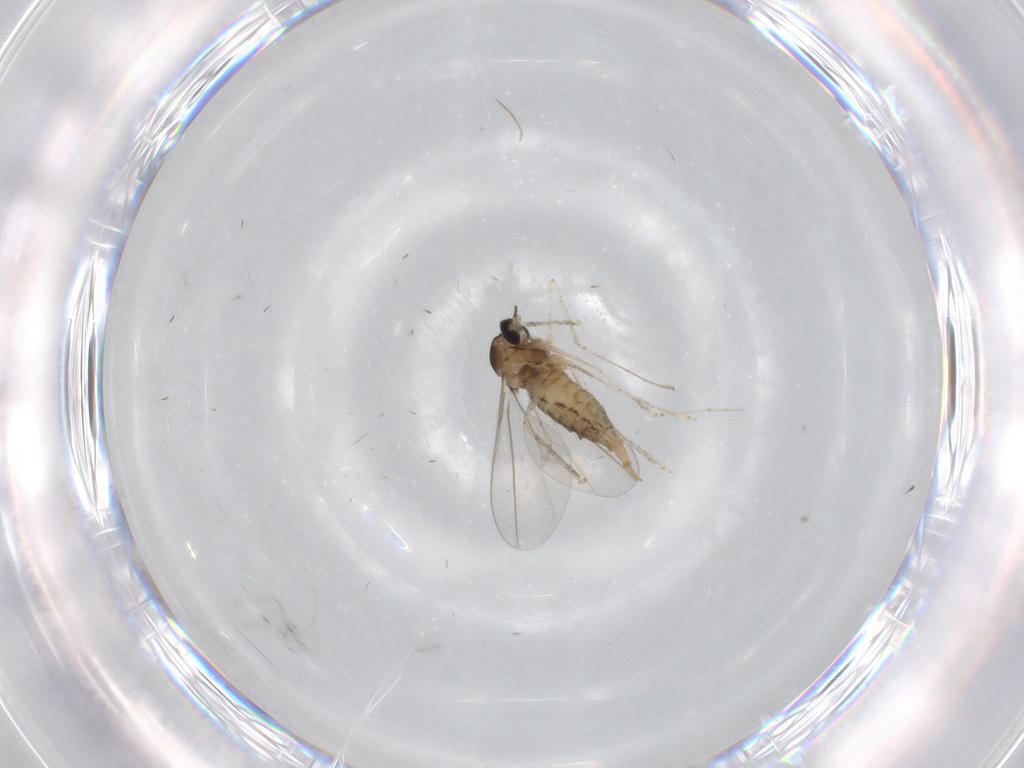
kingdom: Animalia
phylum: Arthropoda
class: Insecta
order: Diptera
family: Cecidomyiidae
